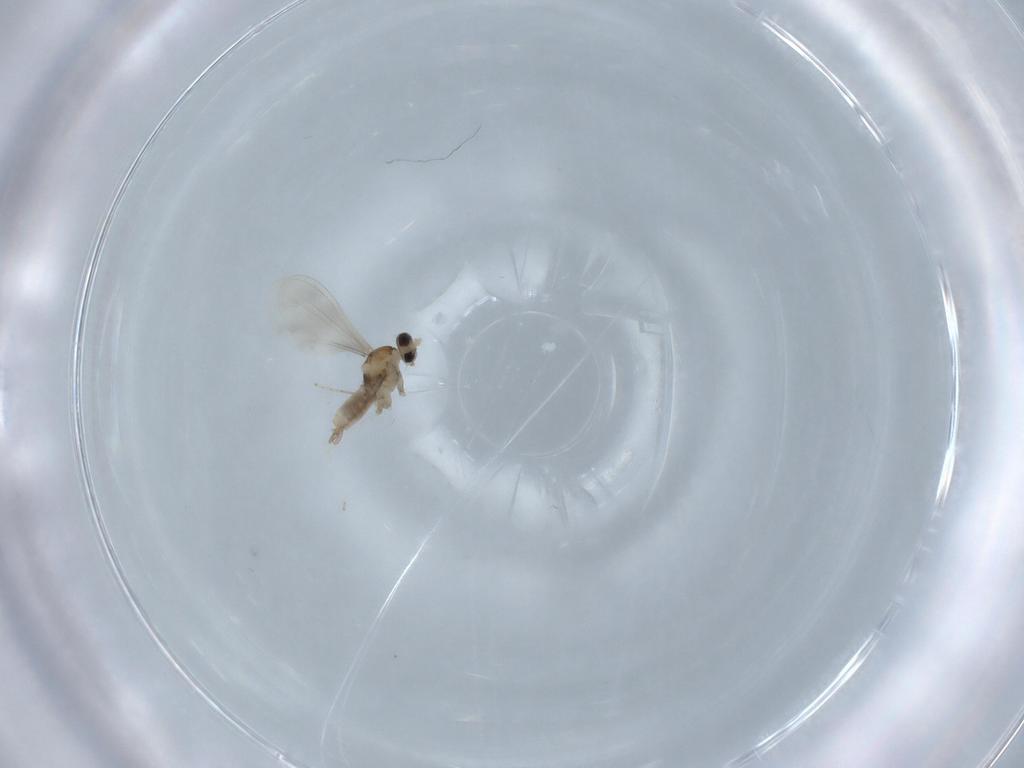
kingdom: Animalia
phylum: Arthropoda
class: Insecta
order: Diptera
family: Cecidomyiidae
